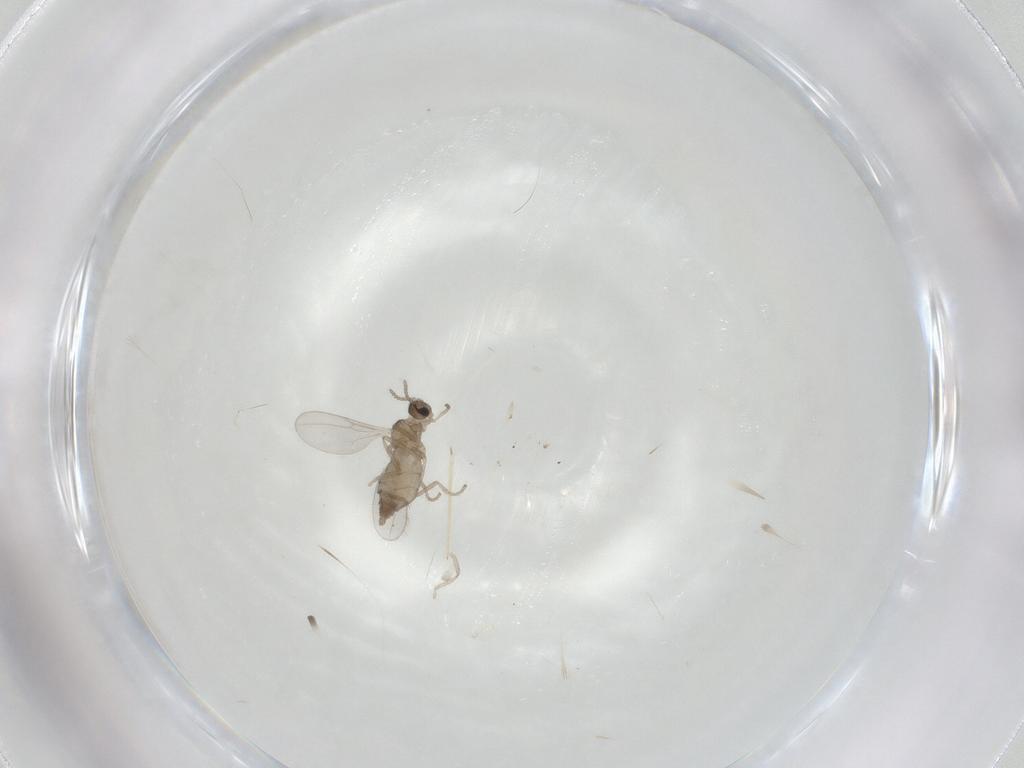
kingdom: Animalia
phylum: Arthropoda
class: Insecta
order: Diptera
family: Cecidomyiidae
